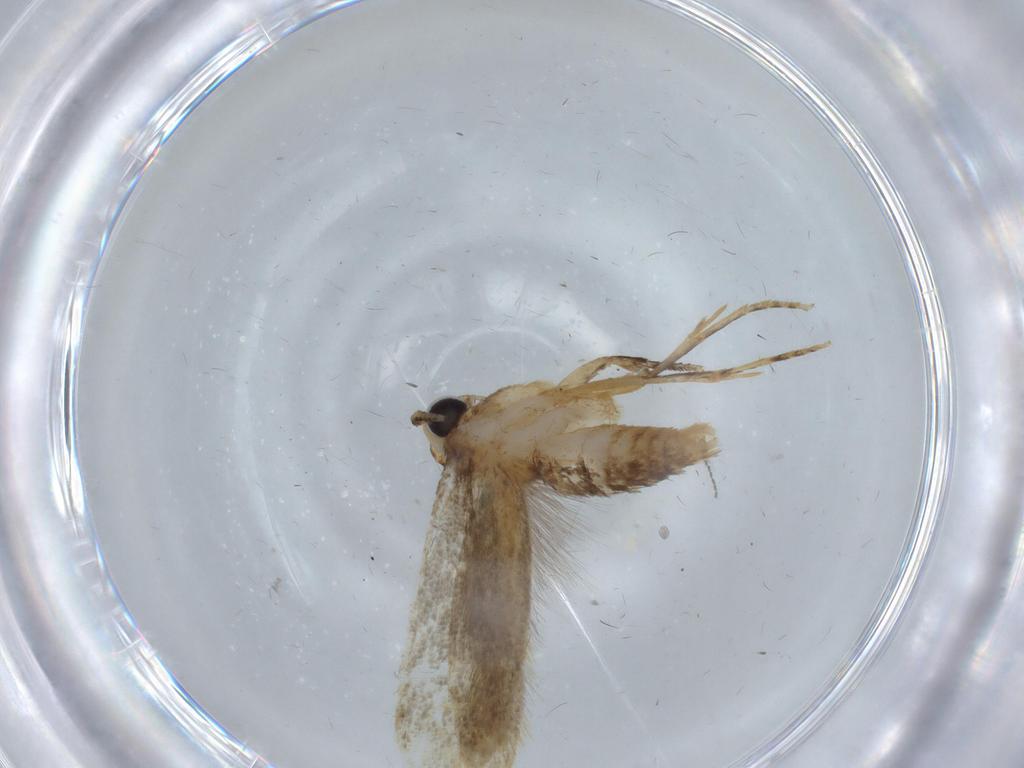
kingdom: Animalia
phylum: Arthropoda
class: Insecta
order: Lepidoptera
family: Tineidae
